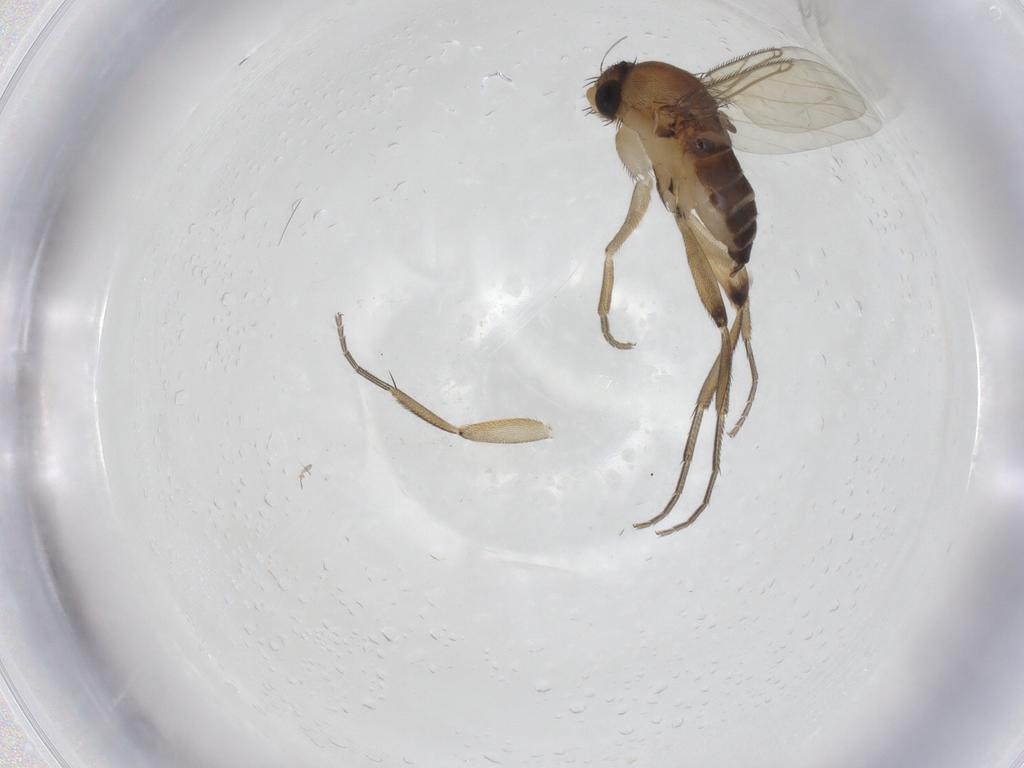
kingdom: Animalia
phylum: Arthropoda
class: Insecta
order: Diptera
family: Phoridae
